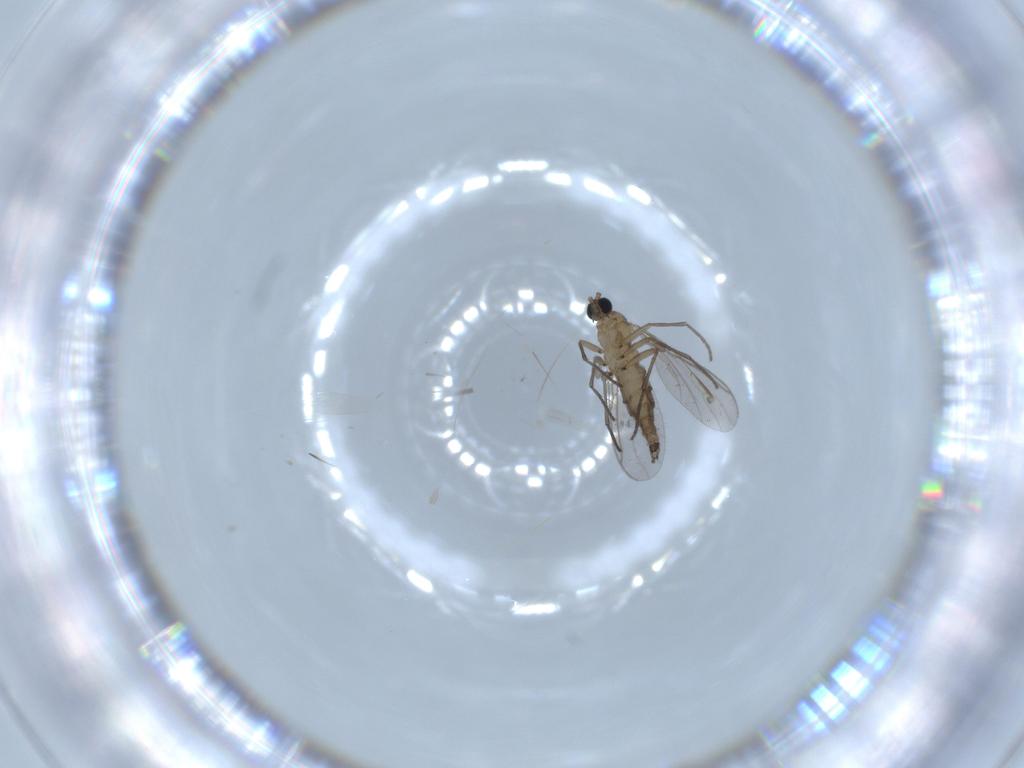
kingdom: Animalia
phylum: Arthropoda
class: Insecta
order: Diptera
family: Sciaridae
